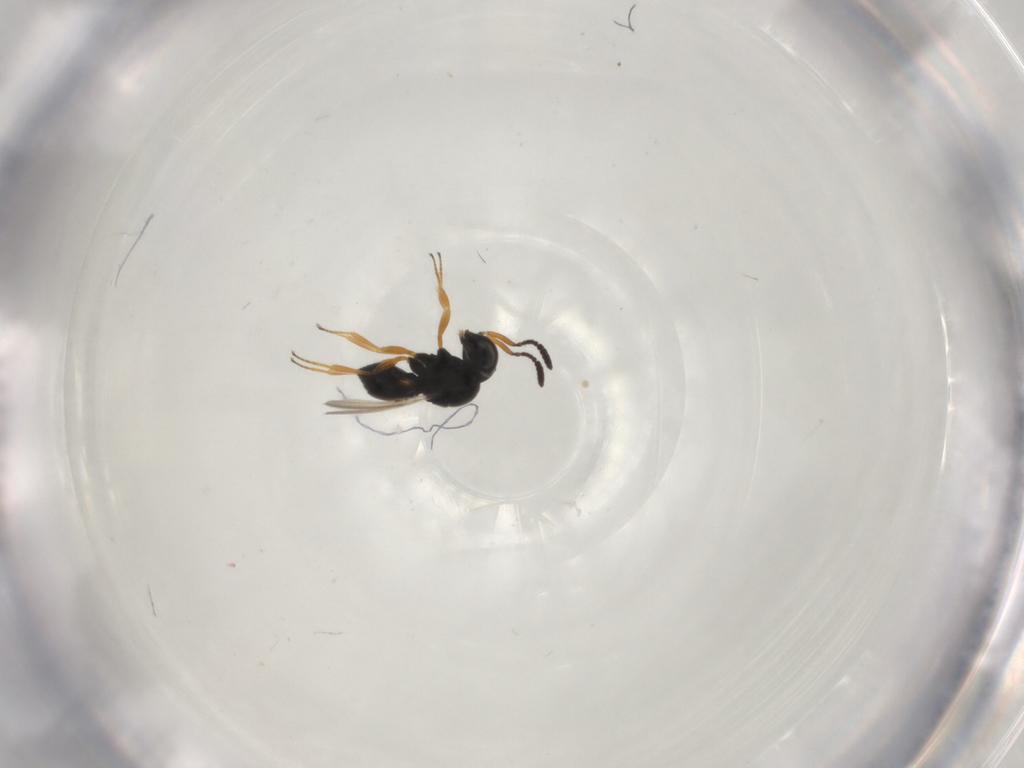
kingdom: Animalia
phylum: Arthropoda
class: Insecta
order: Hymenoptera
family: Scelionidae
